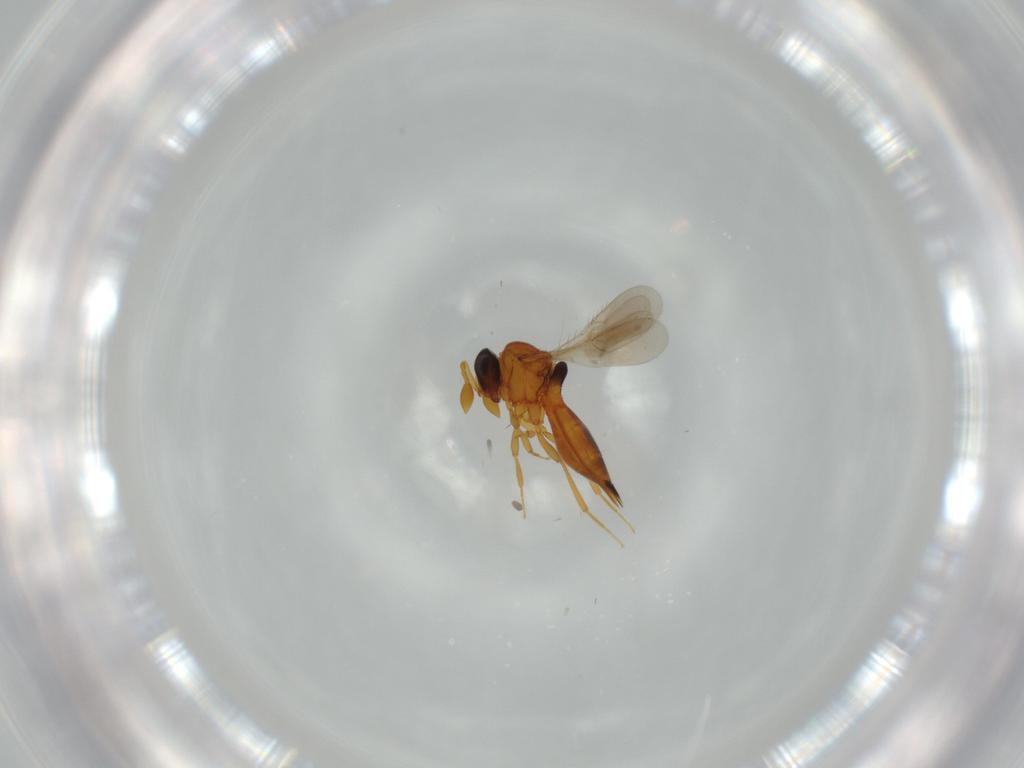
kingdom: Animalia
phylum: Arthropoda
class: Insecta
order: Hymenoptera
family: Scelionidae
